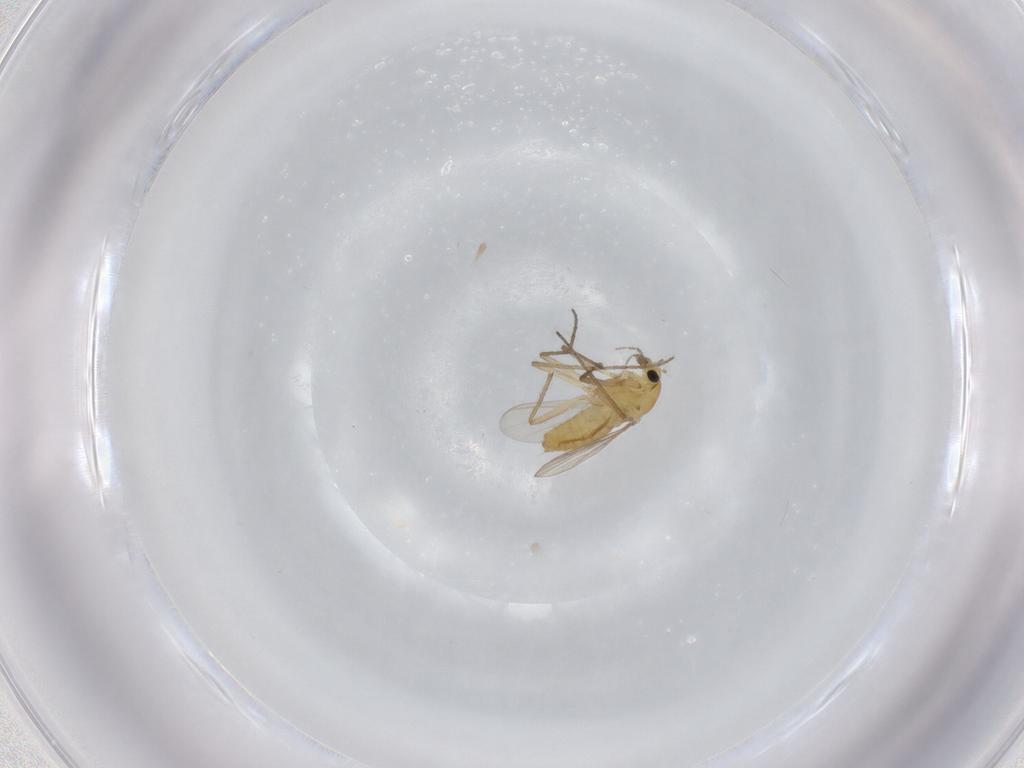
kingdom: Animalia
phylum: Arthropoda
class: Insecta
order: Diptera
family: Chironomidae
